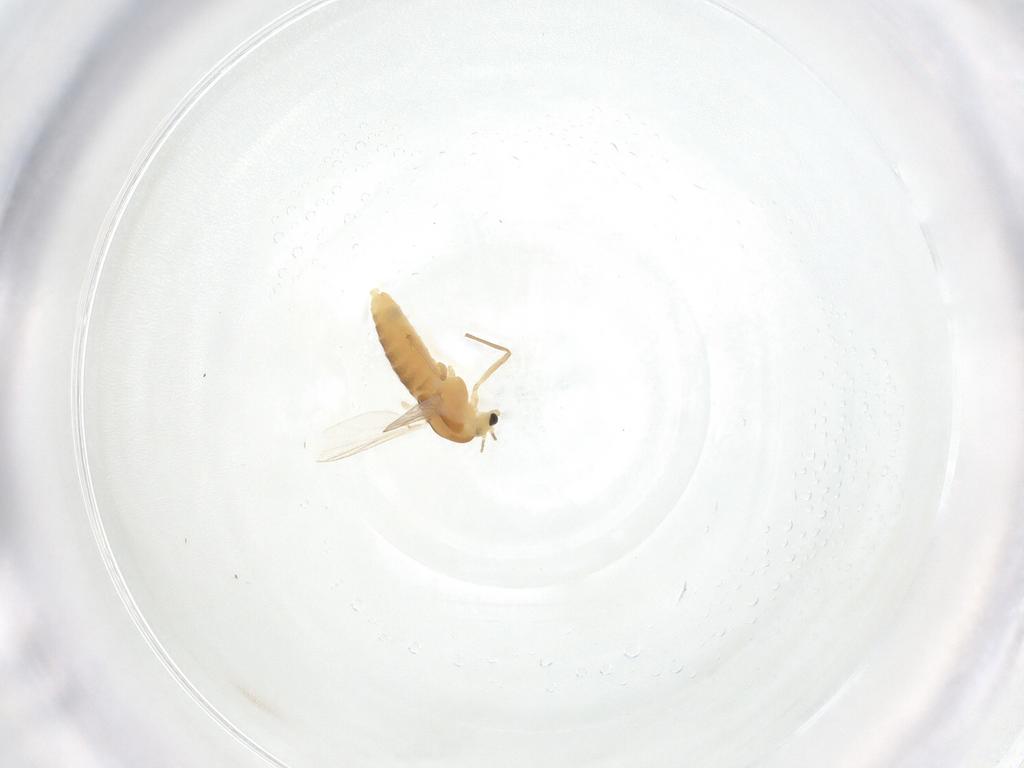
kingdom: Animalia
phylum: Arthropoda
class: Insecta
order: Diptera
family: Chironomidae
